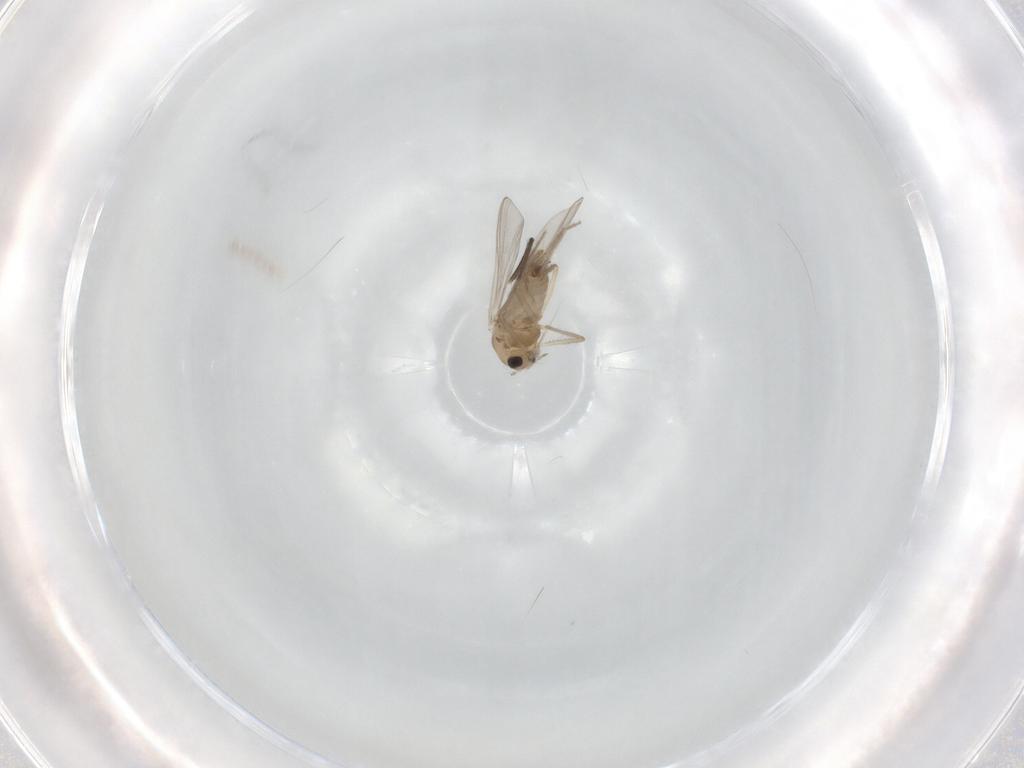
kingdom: Animalia
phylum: Arthropoda
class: Insecta
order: Diptera
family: Chironomidae
